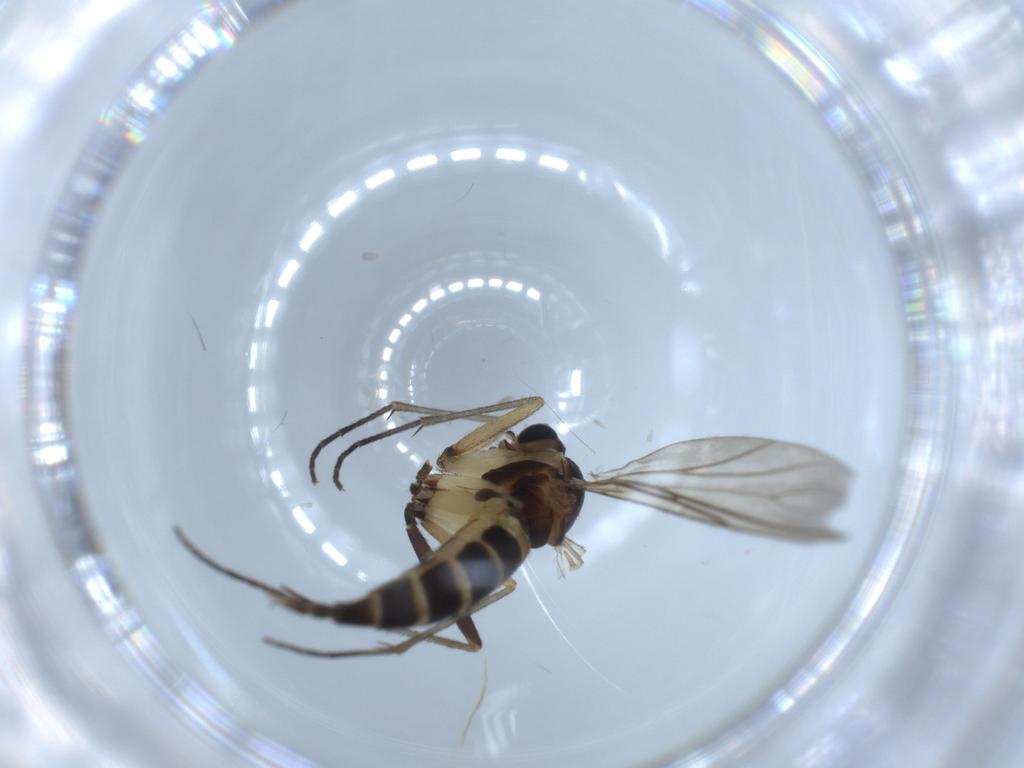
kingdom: Animalia
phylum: Arthropoda
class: Insecta
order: Diptera
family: Sciaridae
